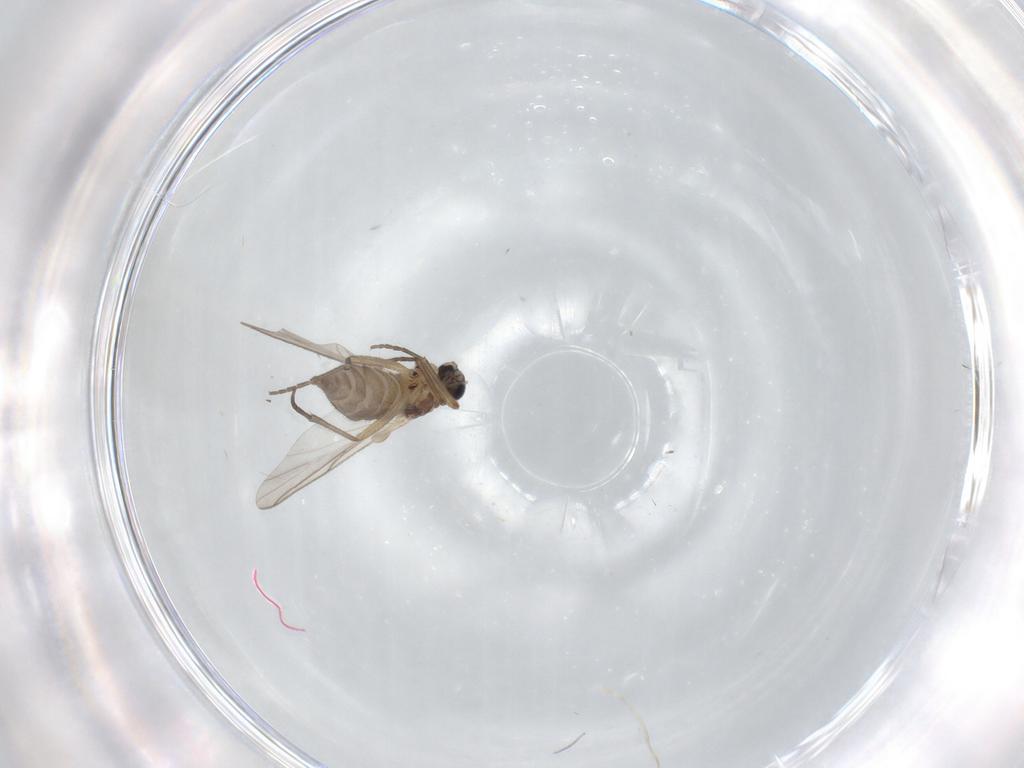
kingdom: Animalia
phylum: Arthropoda
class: Insecta
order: Diptera
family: Sciaridae
